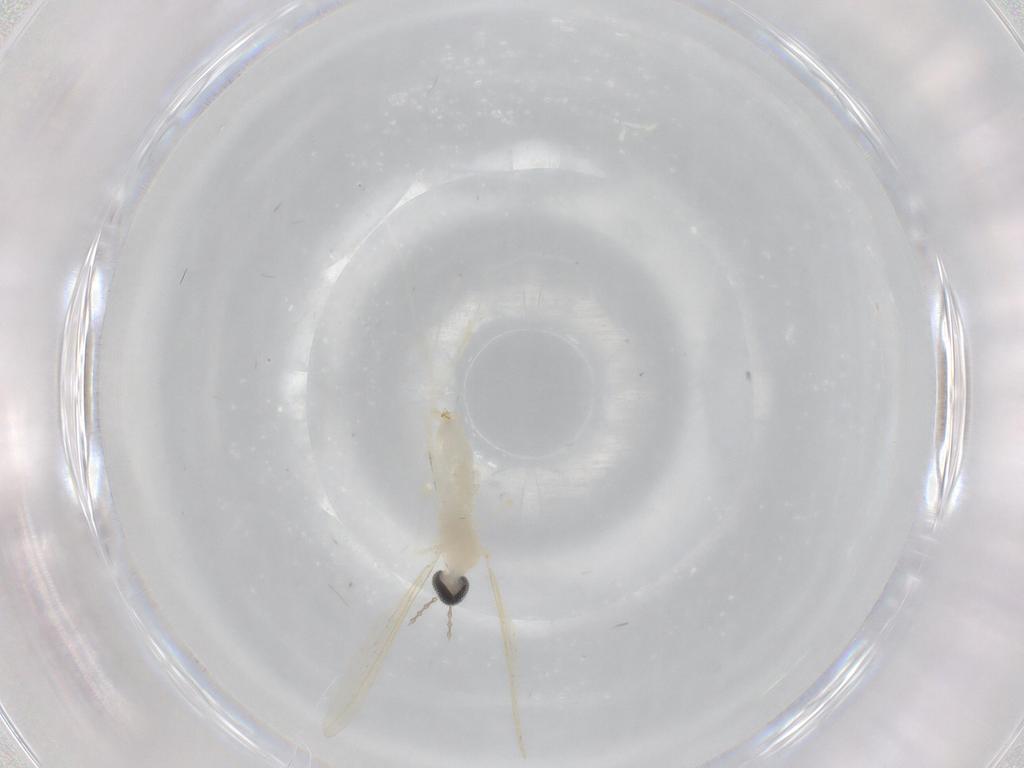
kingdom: Animalia
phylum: Arthropoda
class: Insecta
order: Diptera
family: Cecidomyiidae
